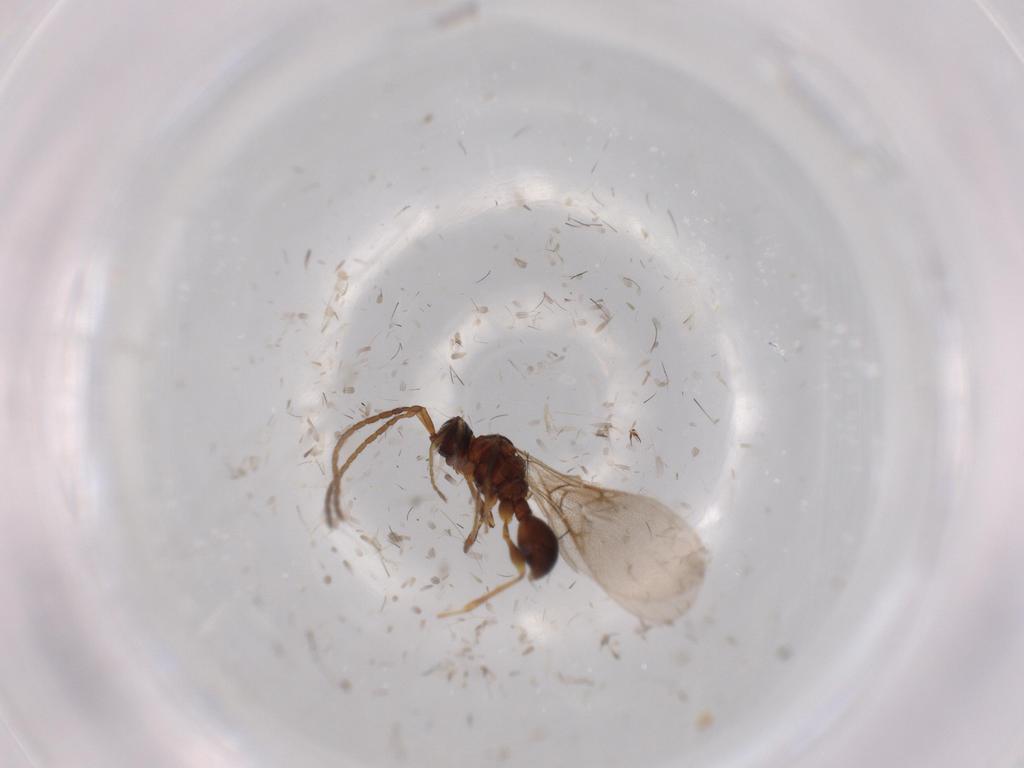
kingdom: Animalia
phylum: Arthropoda
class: Insecta
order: Hymenoptera
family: Diapriidae
